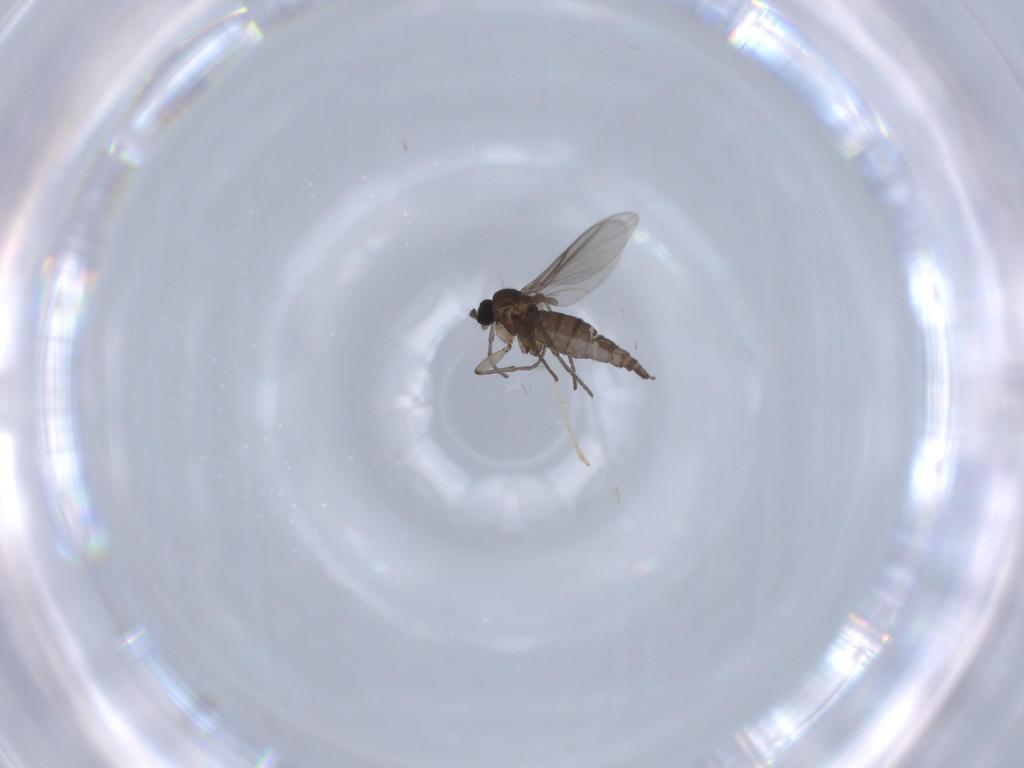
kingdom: Animalia
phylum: Arthropoda
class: Insecta
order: Diptera
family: Chironomidae
